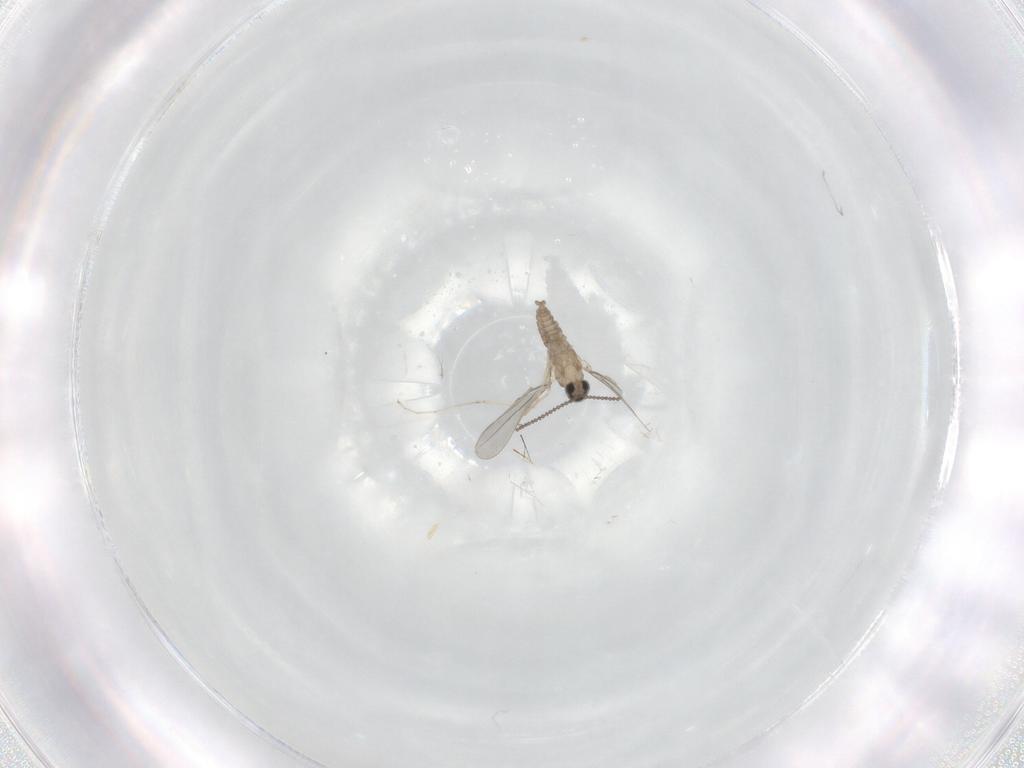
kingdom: Animalia
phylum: Arthropoda
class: Insecta
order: Diptera
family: Cecidomyiidae
